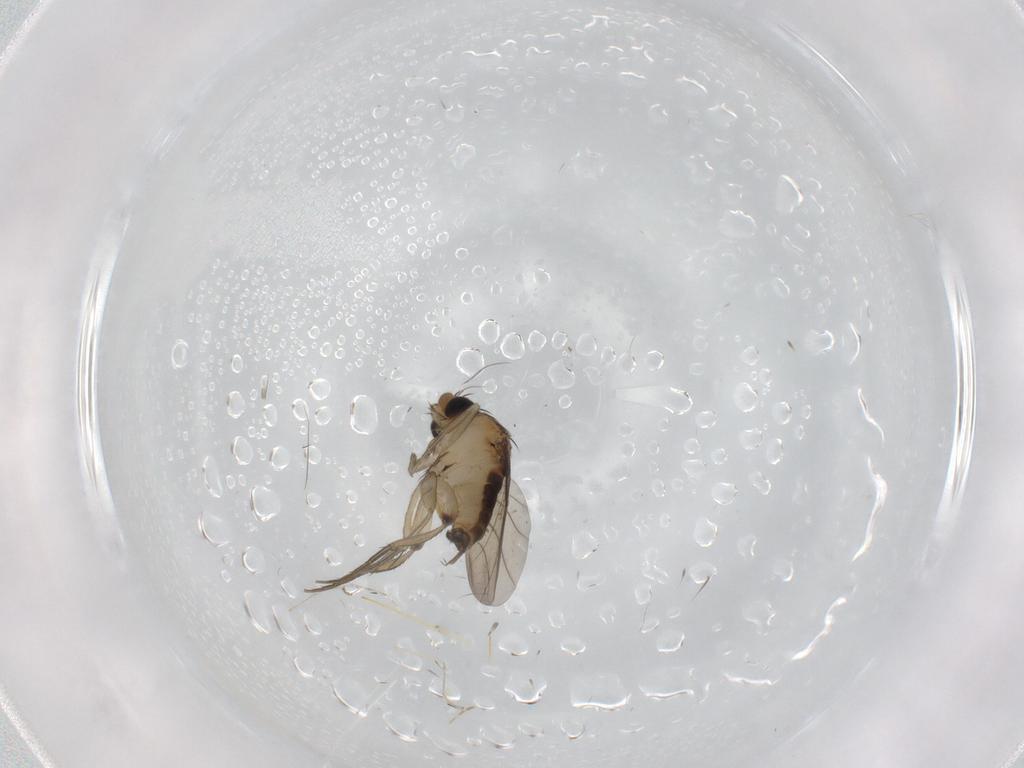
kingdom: Animalia
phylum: Arthropoda
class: Insecta
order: Diptera
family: Phoridae
